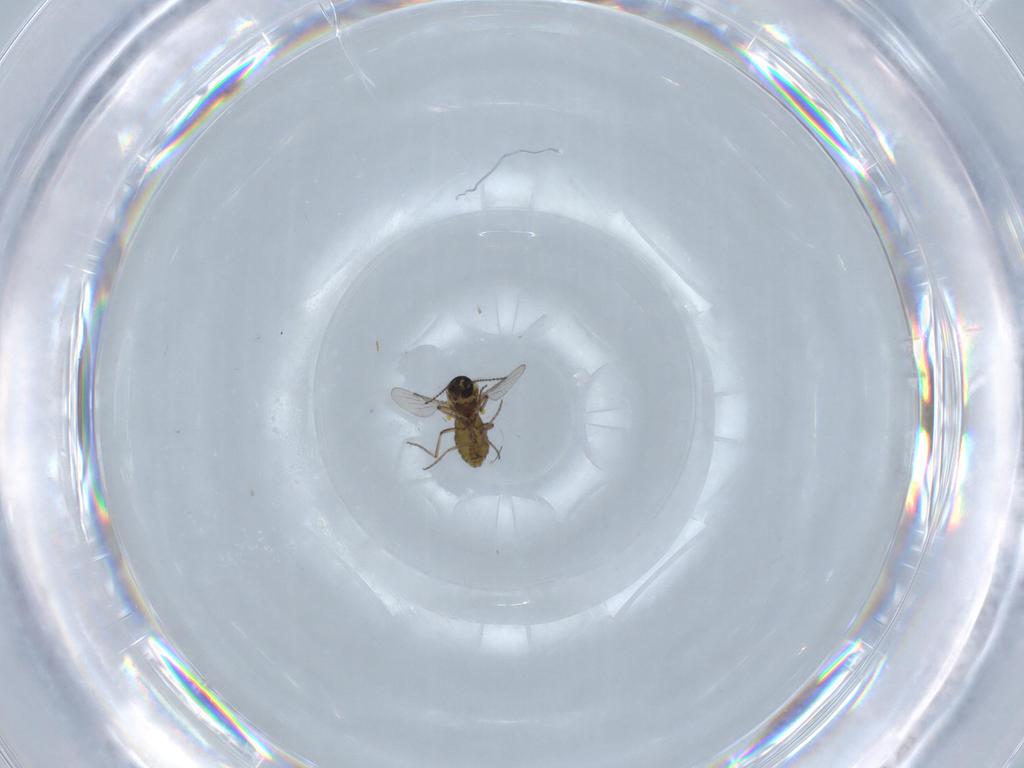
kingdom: Animalia
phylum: Arthropoda
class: Insecta
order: Diptera
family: Ceratopogonidae
